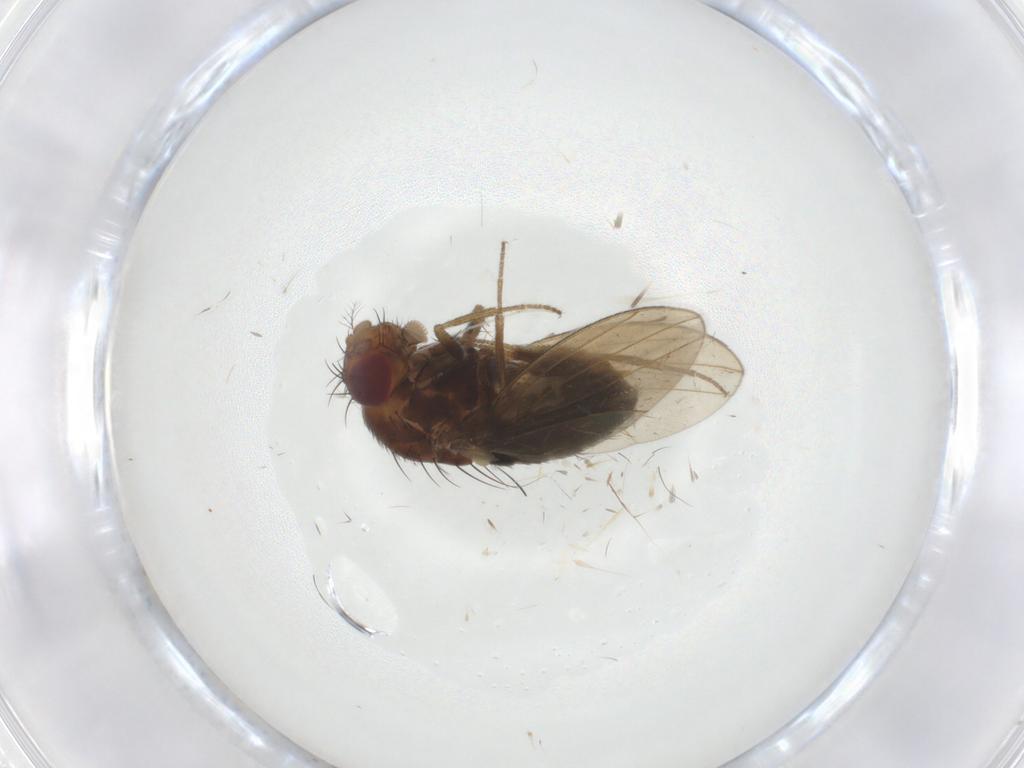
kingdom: Animalia
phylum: Arthropoda
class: Insecta
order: Diptera
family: Drosophilidae
